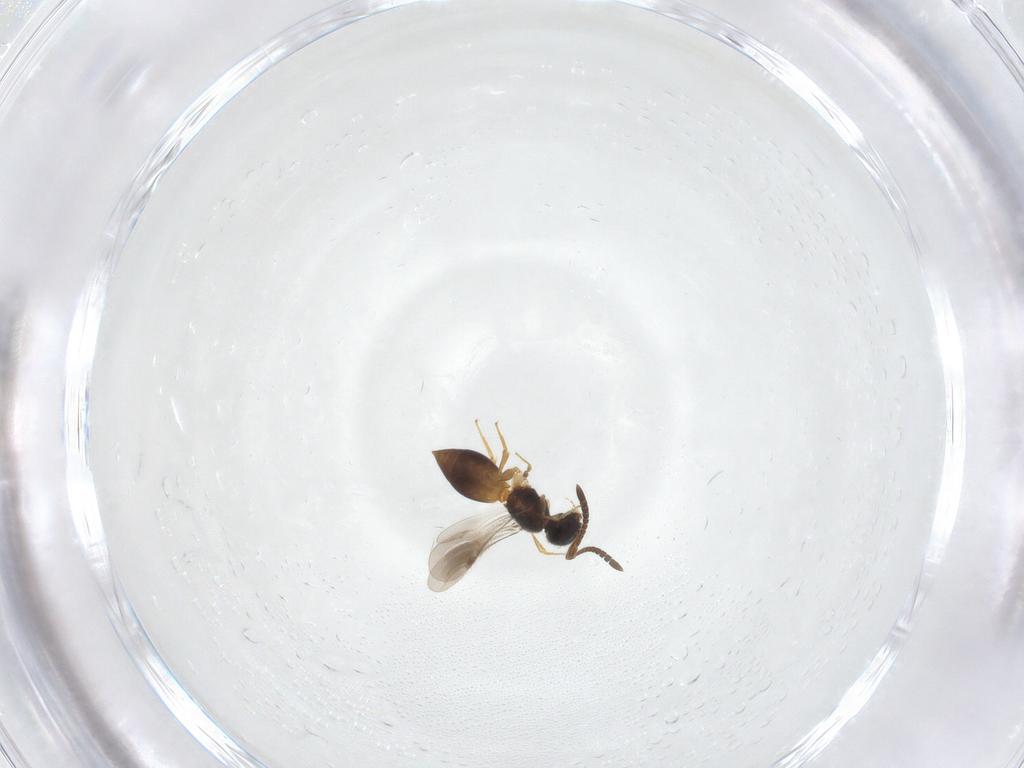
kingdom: Animalia
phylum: Arthropoda
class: Insecta
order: Hymenoptera
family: Megaspilidae
